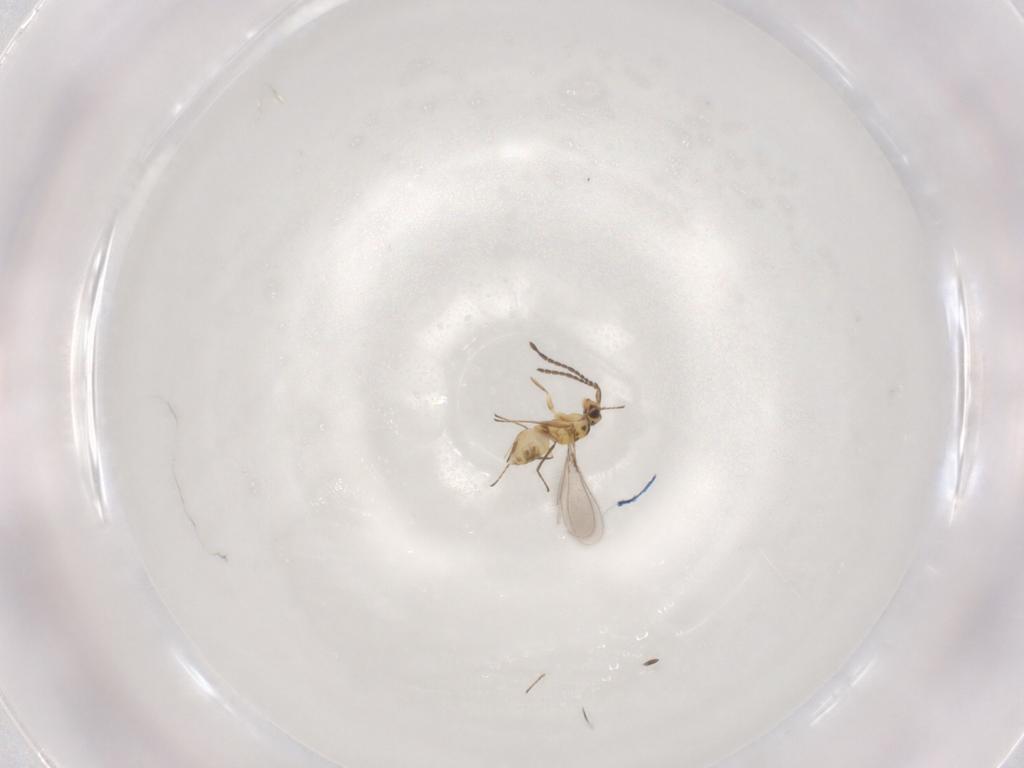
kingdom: Animalia
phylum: Arthropoda
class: Insecta
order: Hymenoptera
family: Mymaridae
